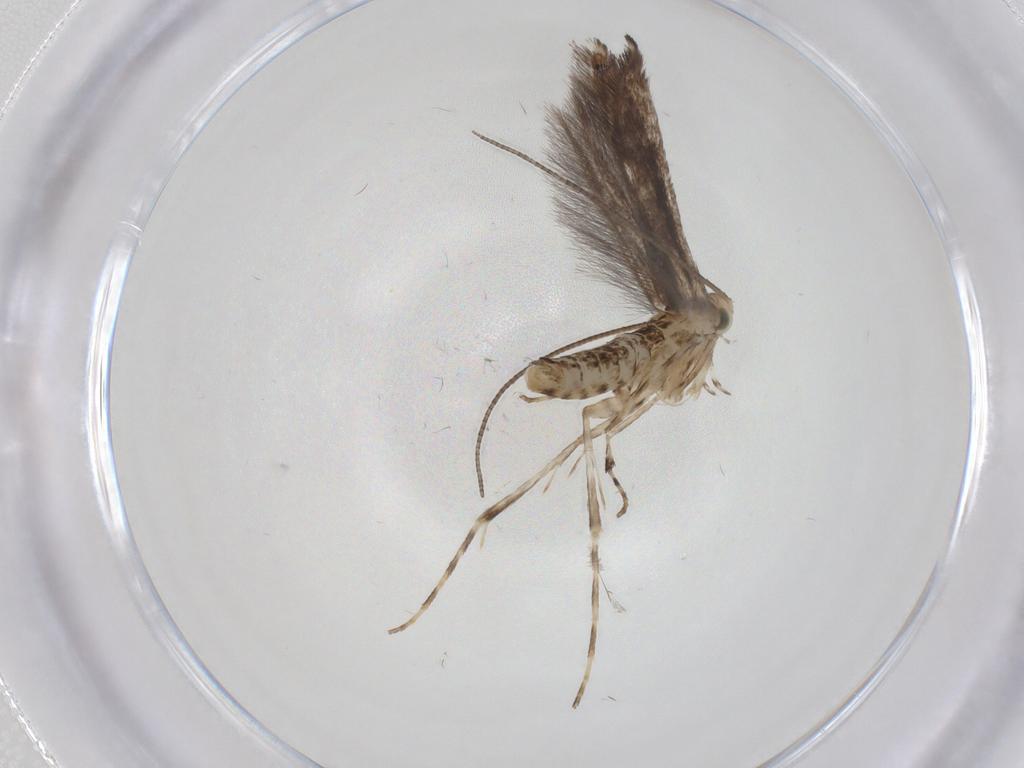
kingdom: Animalia
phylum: Arthropoda
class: Insecta
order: Lepidoptera
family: Gracillariidae
